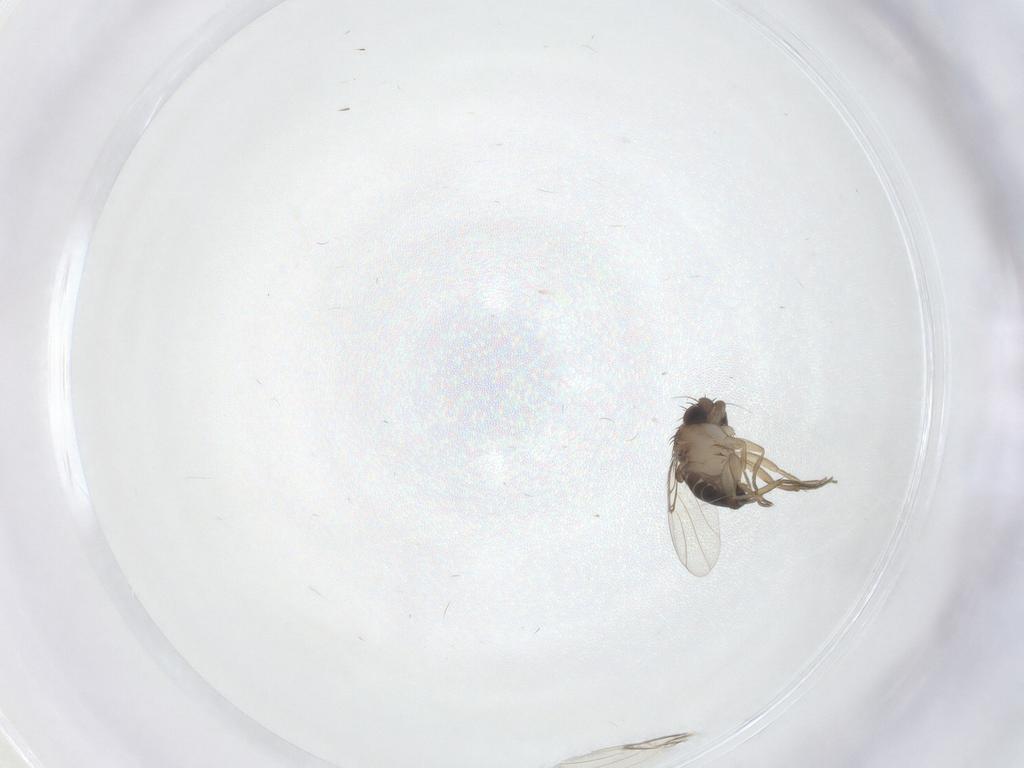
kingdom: Animalia
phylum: Arthropoda
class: Insecta
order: Diptera
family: Phoridae
